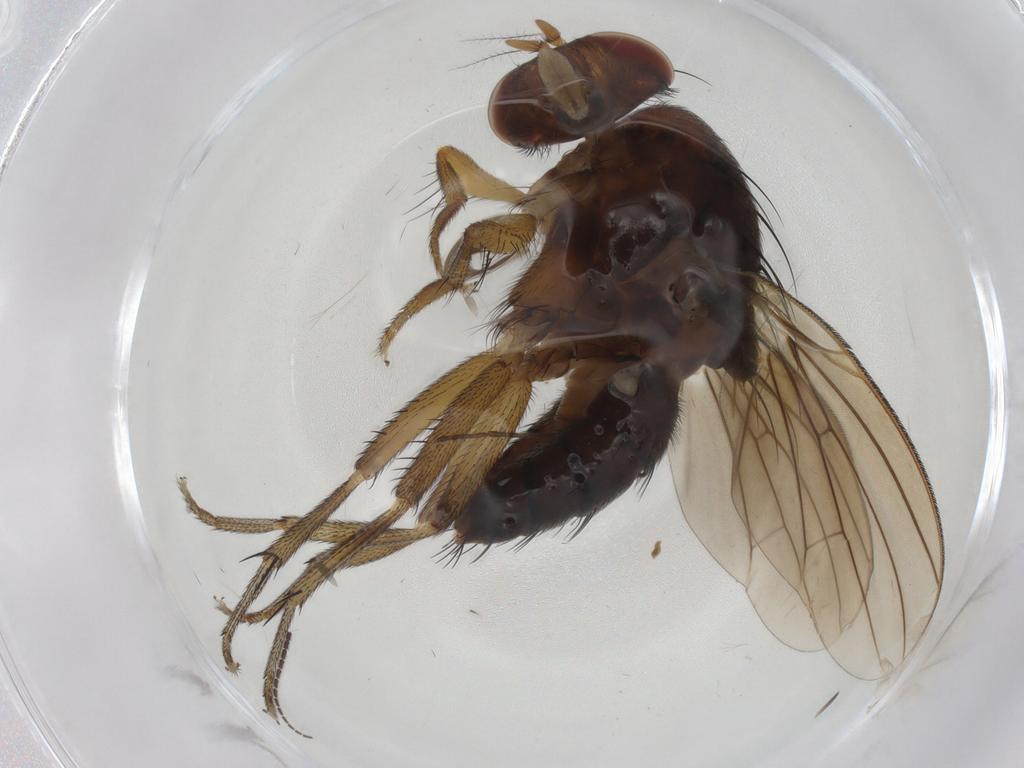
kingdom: Animalia
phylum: Arthropoda
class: Insecta
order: Diptera
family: Sciaridae
